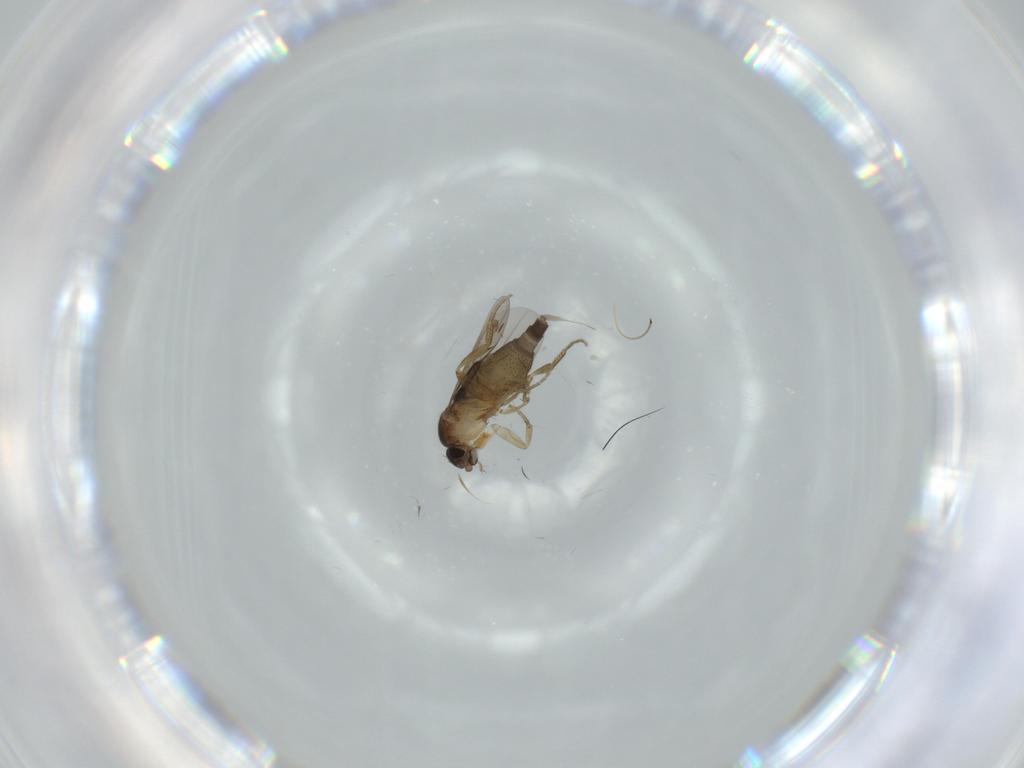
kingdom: Animalia
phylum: Arthropoda
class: Insecta
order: Diptera
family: Phoridae
